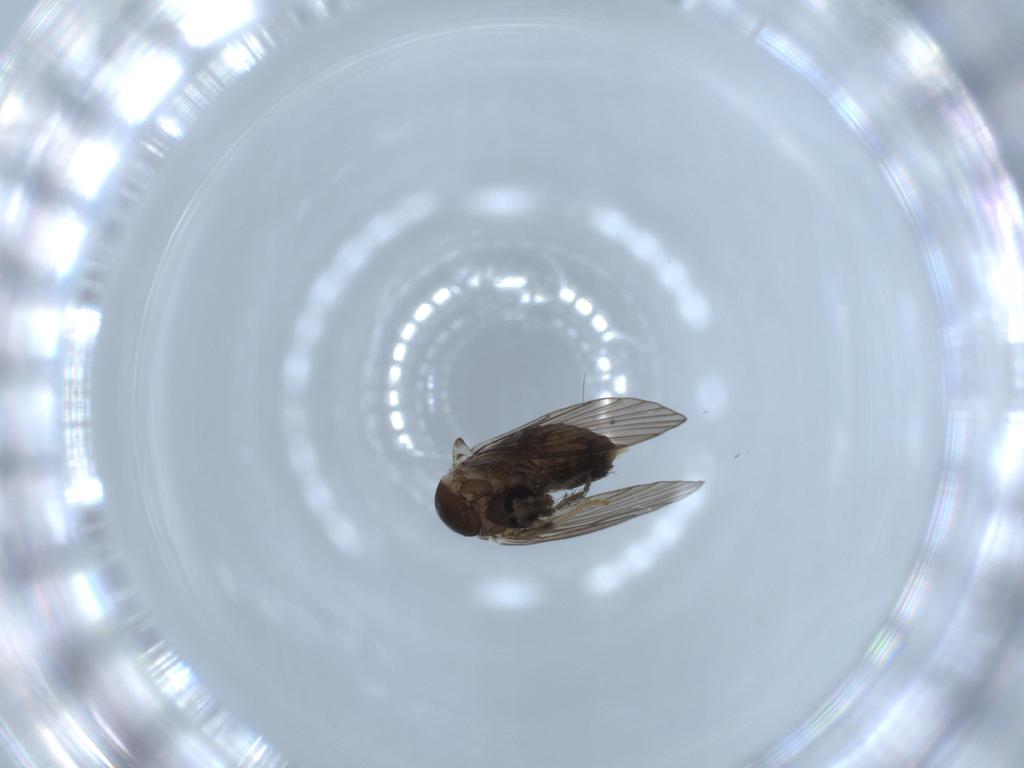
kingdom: Animalia
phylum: Arthropoda
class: Insecta
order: Diptera
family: Psychodidae
